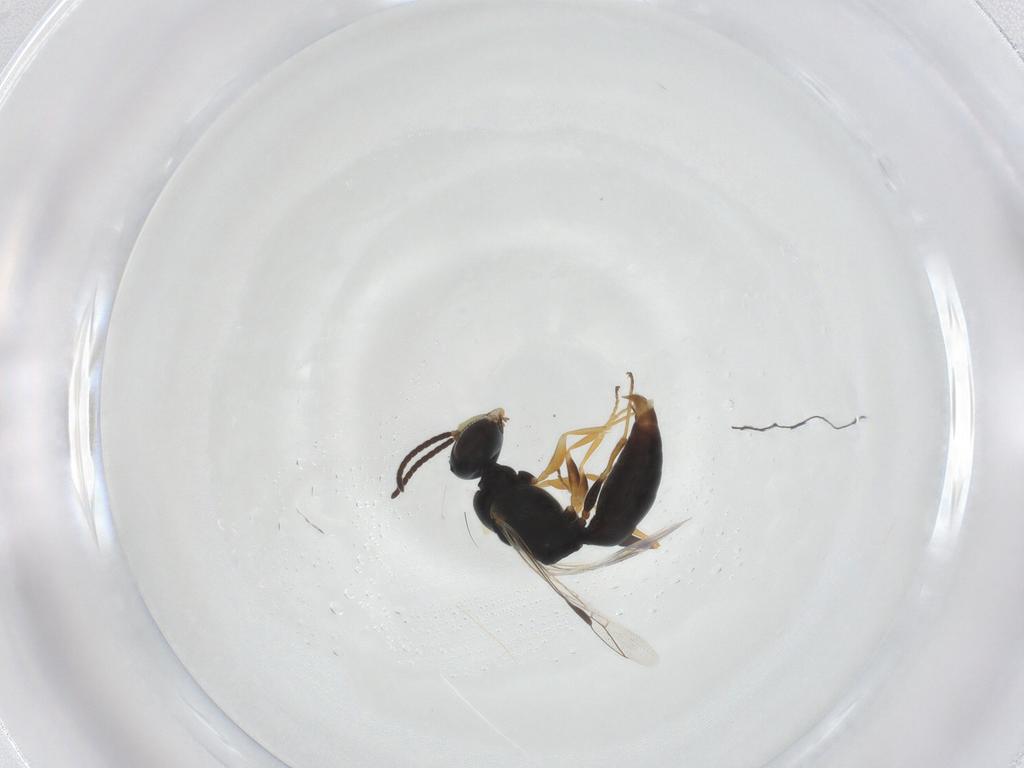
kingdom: Animalia
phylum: Arthropoda
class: Insecta
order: Hymenoptera
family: Crabronidae
